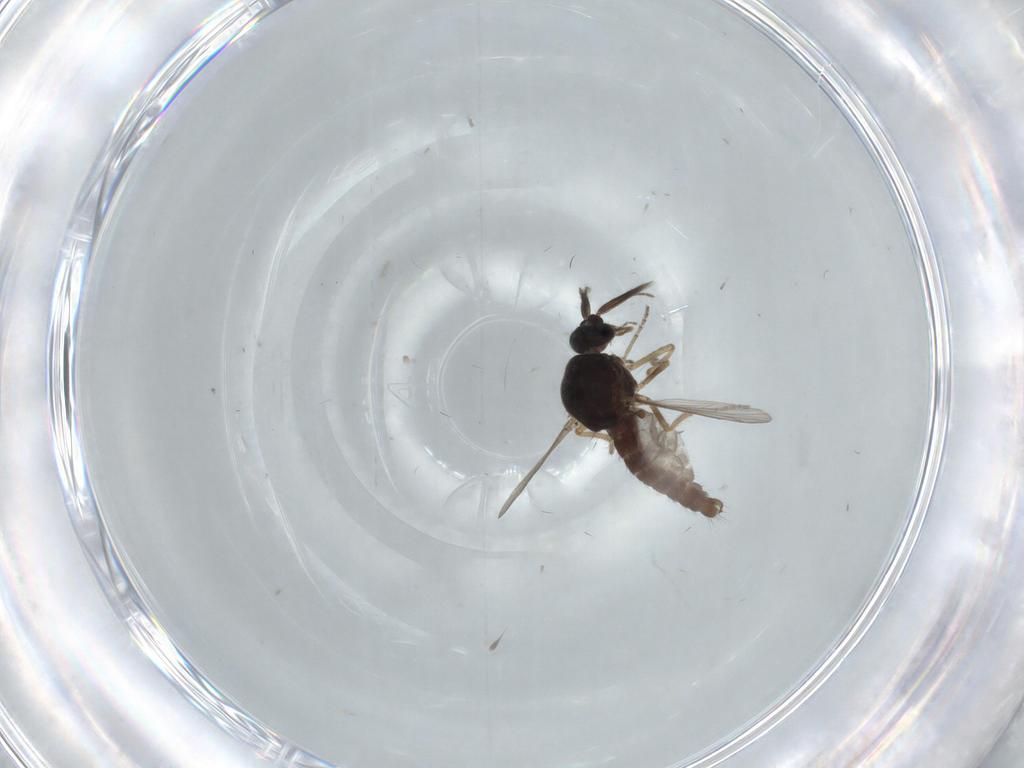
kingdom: Animalia
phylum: Arthropoda
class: Insecta
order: Diptera
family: Ceratopogonidae
